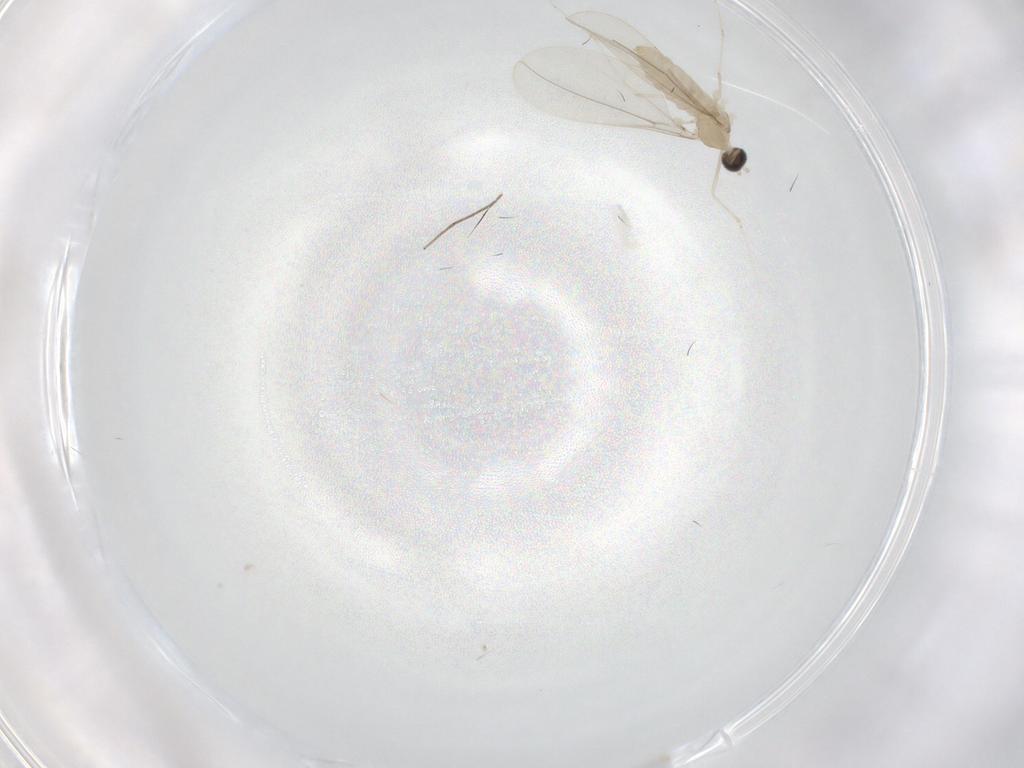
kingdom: Animalia
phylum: Arthropoda
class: Insecta
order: Diptera
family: Cecidomyiidae
